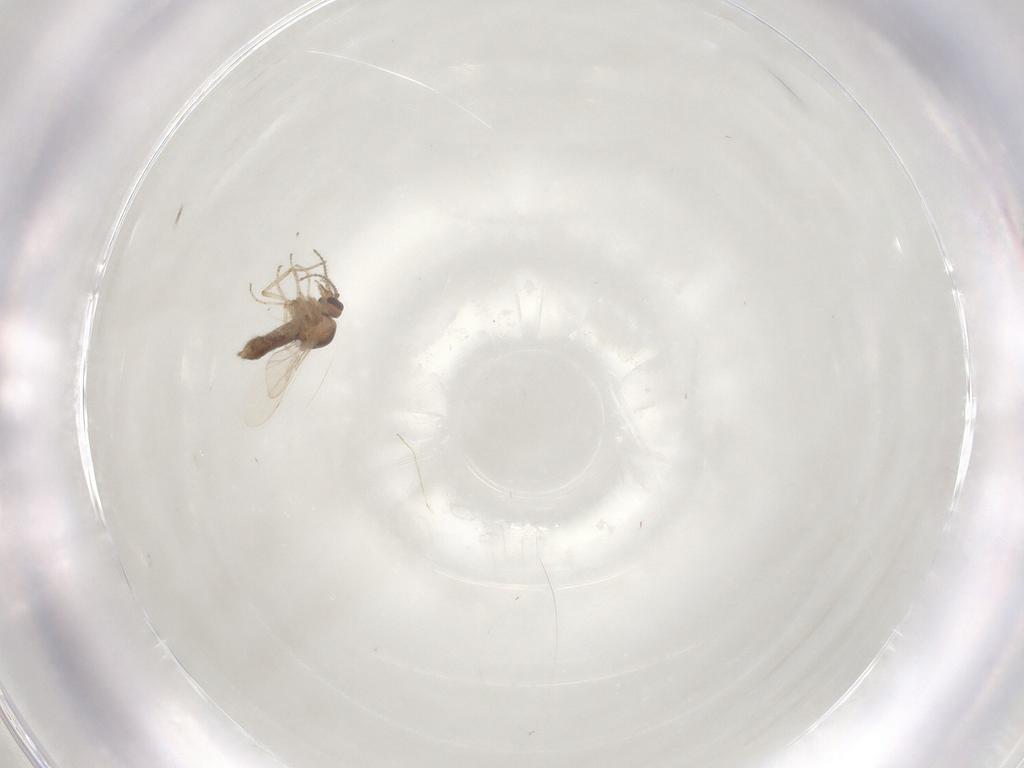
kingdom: Animalia
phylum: Arthropoda
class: Insecta
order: Diptera
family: Ceratopogonidae
